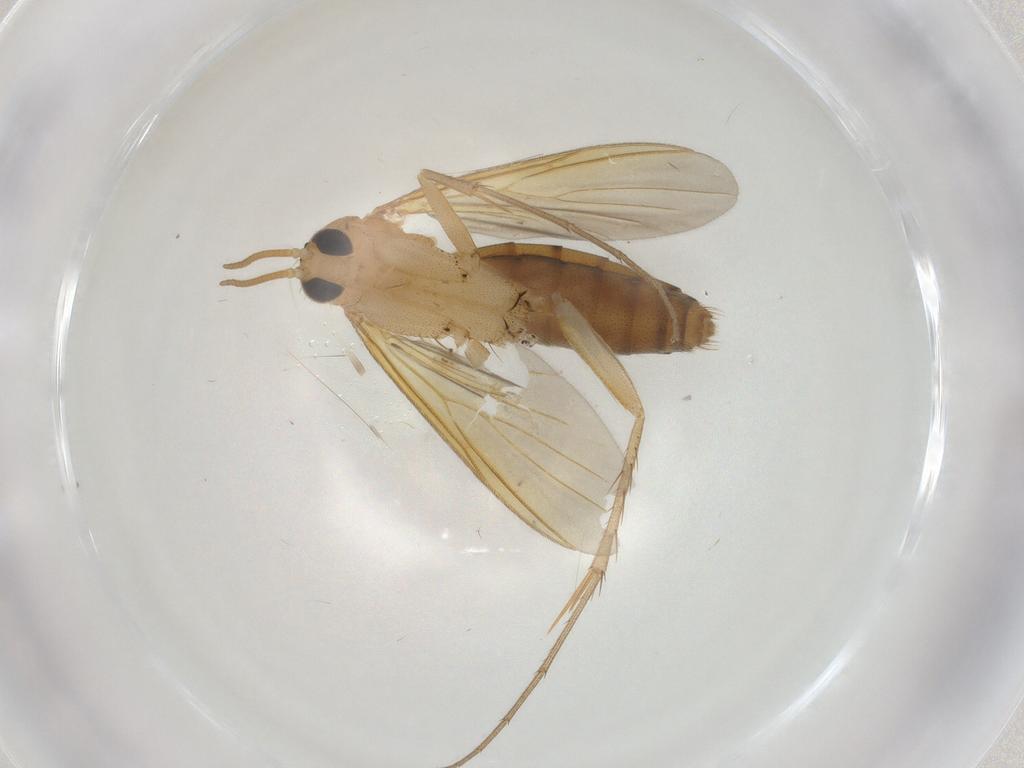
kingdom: Animalia
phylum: Arthropoda
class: Insecta
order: Diptera
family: Mycetophilidae
